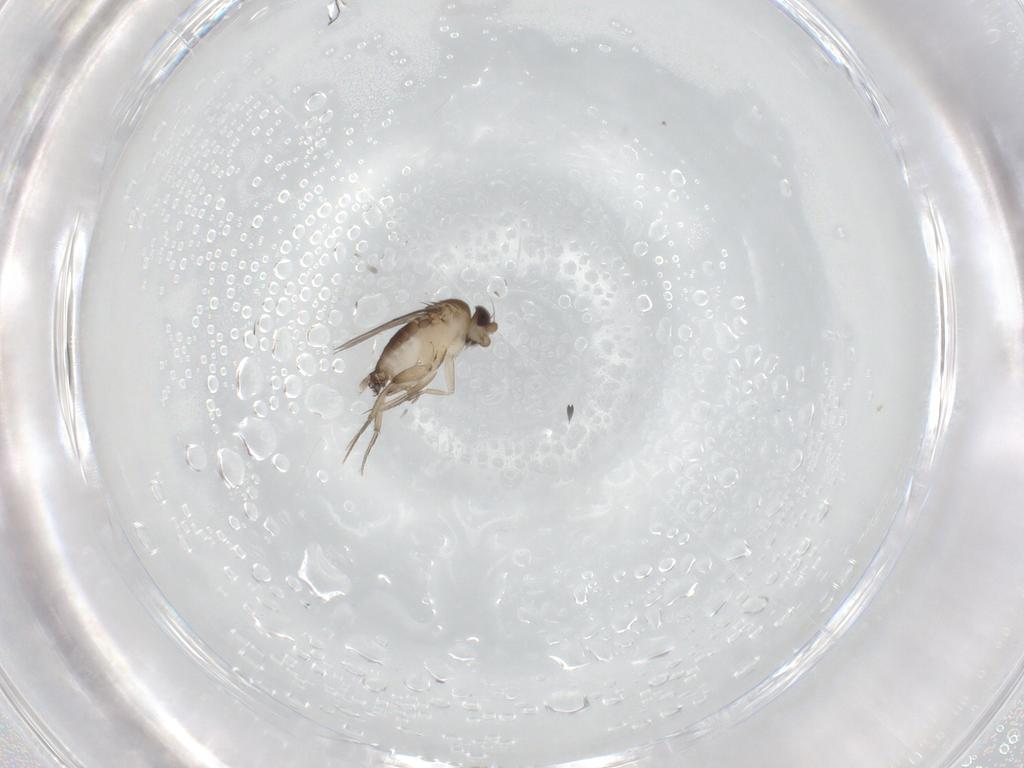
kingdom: Animalia
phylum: Arthropoda
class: Insecta
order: Diptera
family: Phoridae
